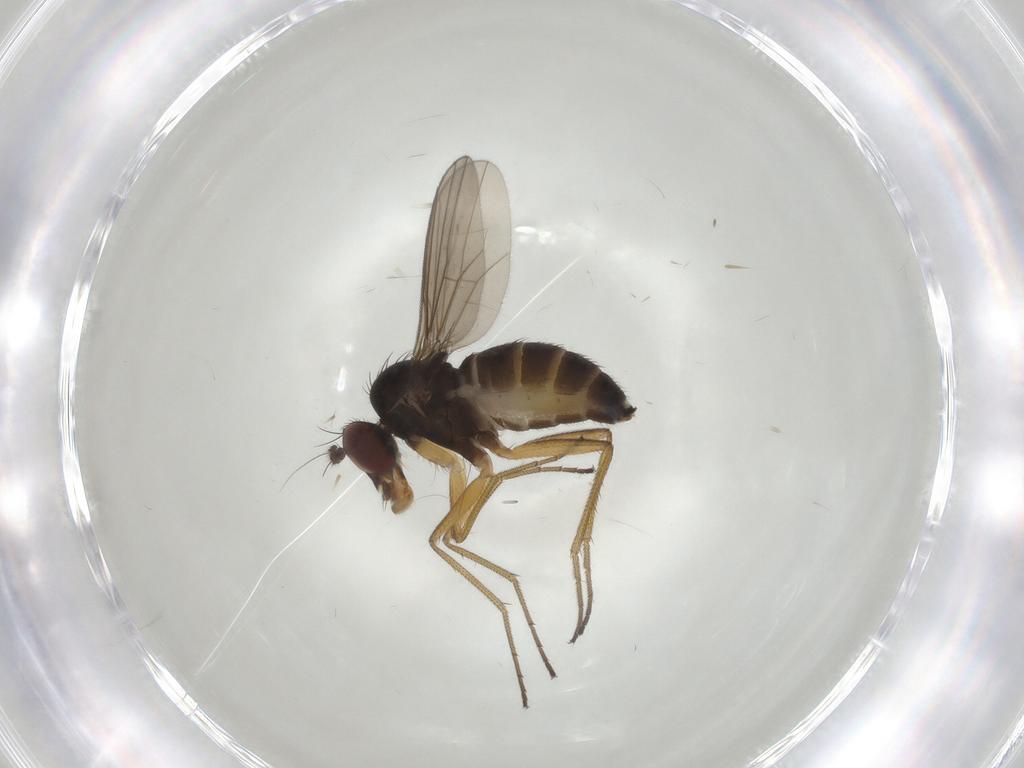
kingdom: Animalia
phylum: Arthropoda
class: Insecta
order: Diptera
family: Dolichopodidae
